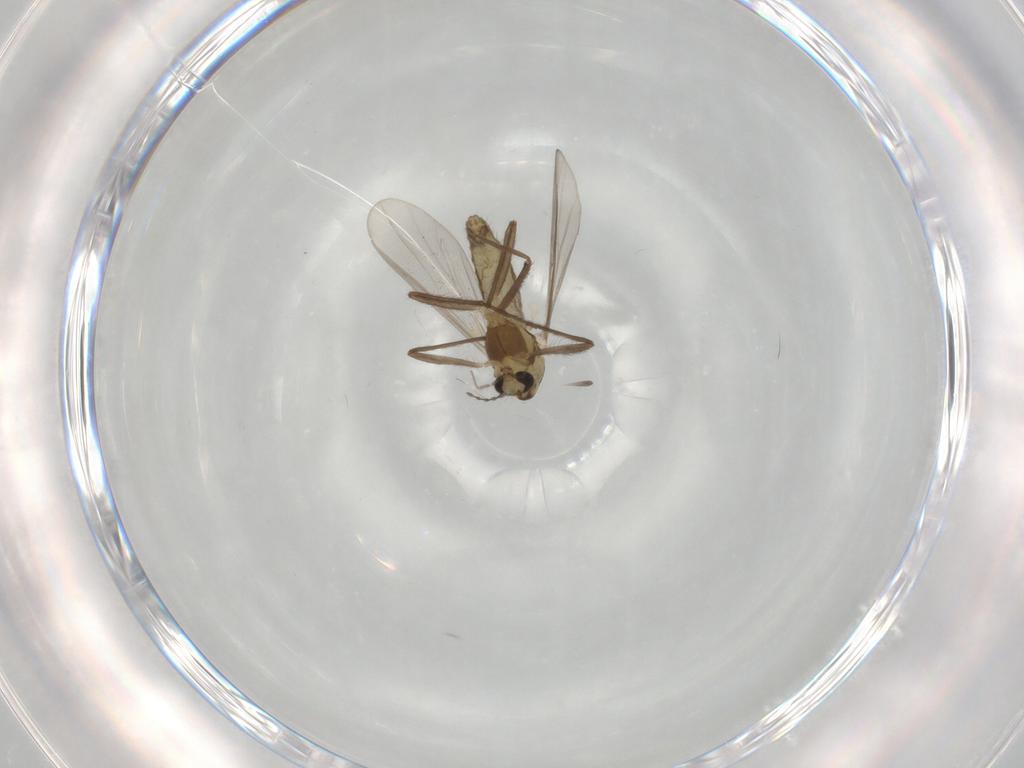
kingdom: Animalia
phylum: Arthropoda
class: Insecta
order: Diptera
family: Chironomidae
